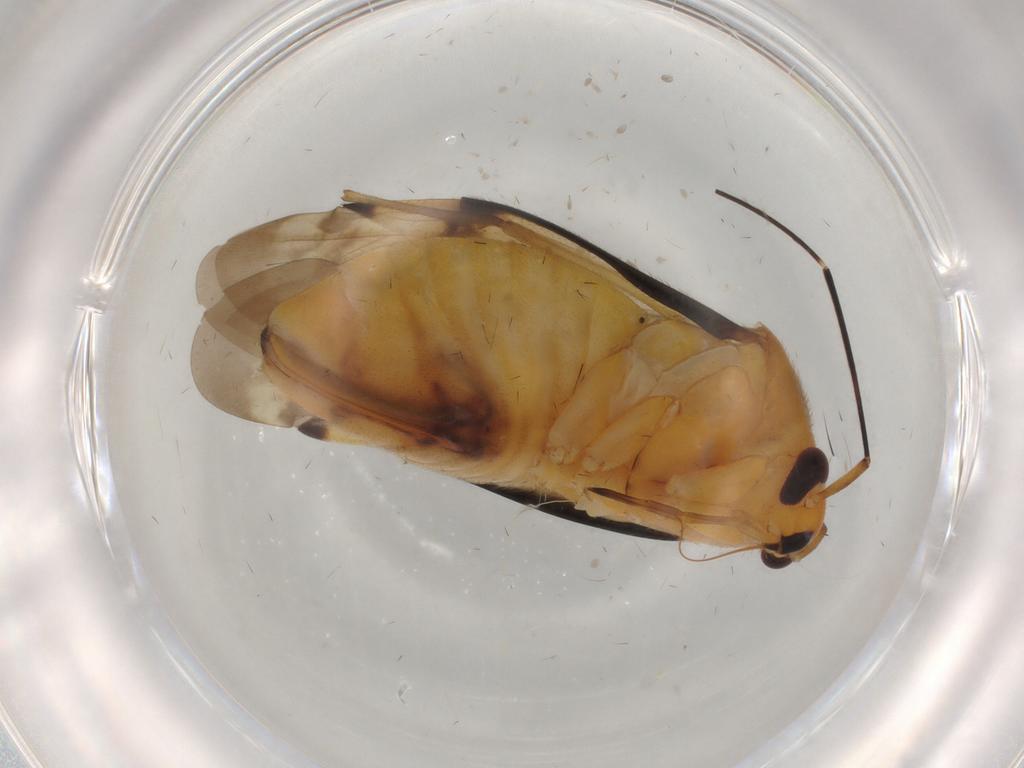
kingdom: Animalia
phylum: Arthropoda
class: Insecta
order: Hemiptera
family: Miridae
